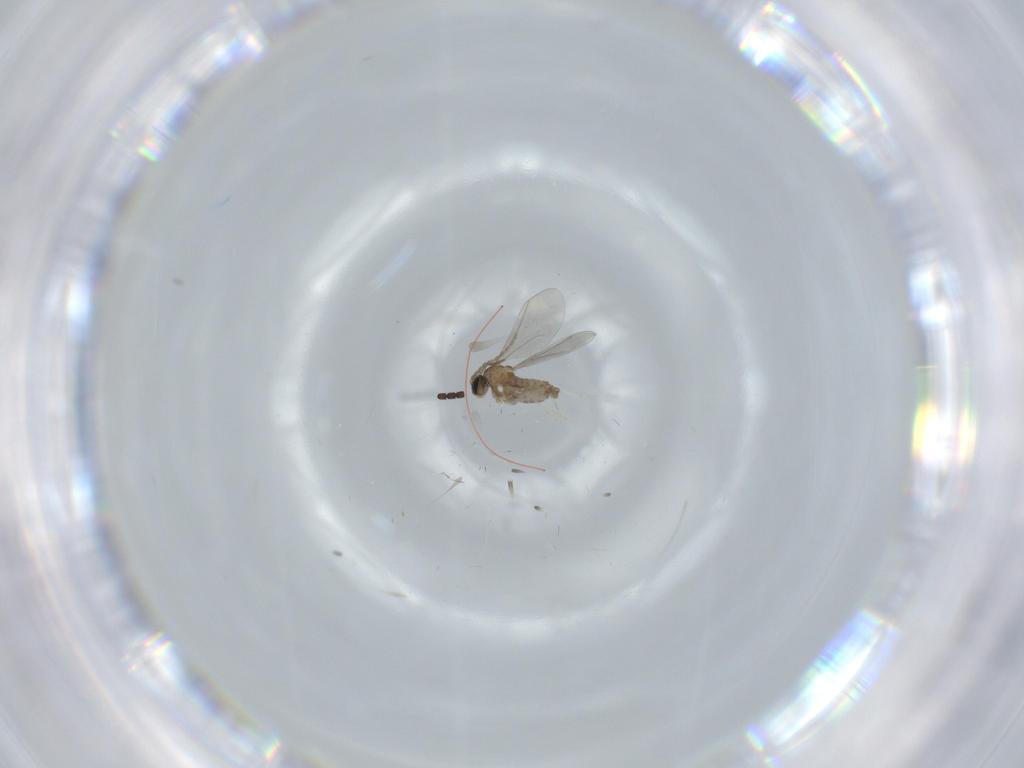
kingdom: Animalia
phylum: Arthropoda
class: Insecta
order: Diptera
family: Cecidomyiidae
